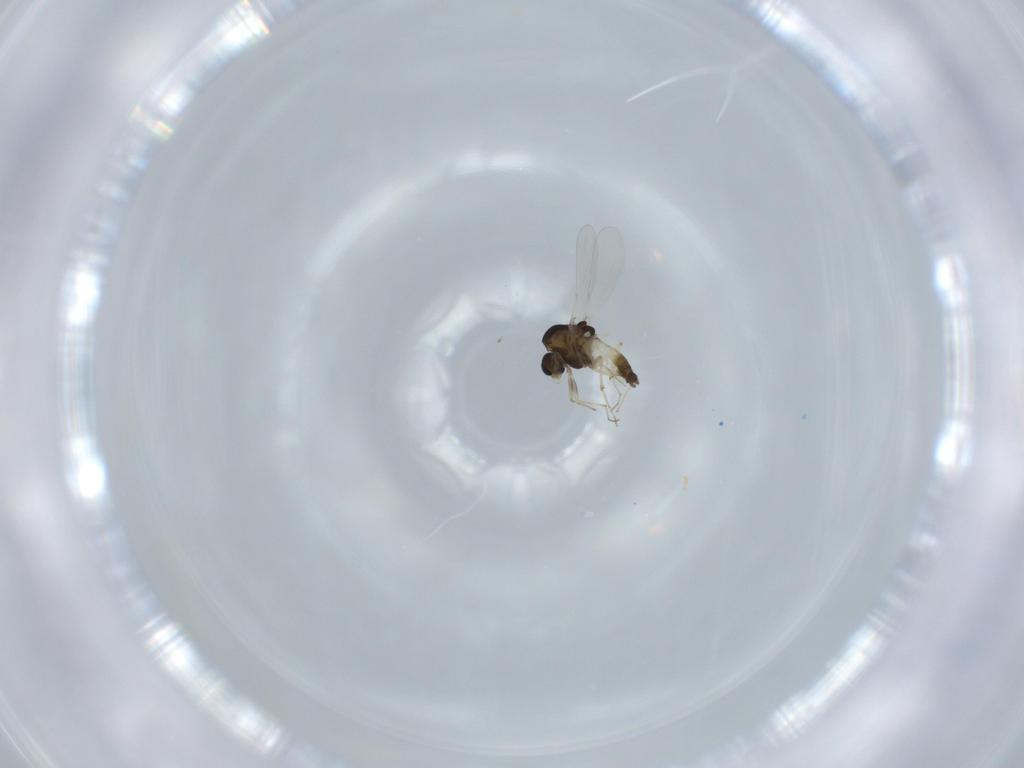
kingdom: Animalia
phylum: Arthropoda
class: Insecta
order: Diptera
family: Chironomidae
